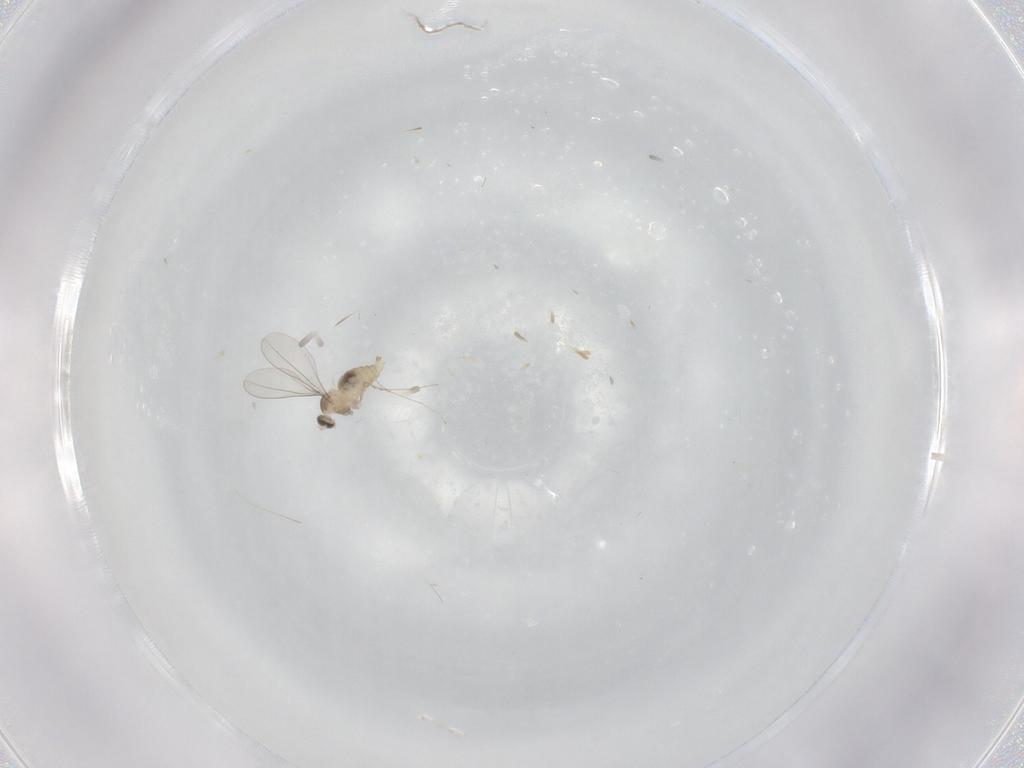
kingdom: Animalia
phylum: Arthropoda
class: Insecta
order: Diptera
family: Cecidomyiidae
